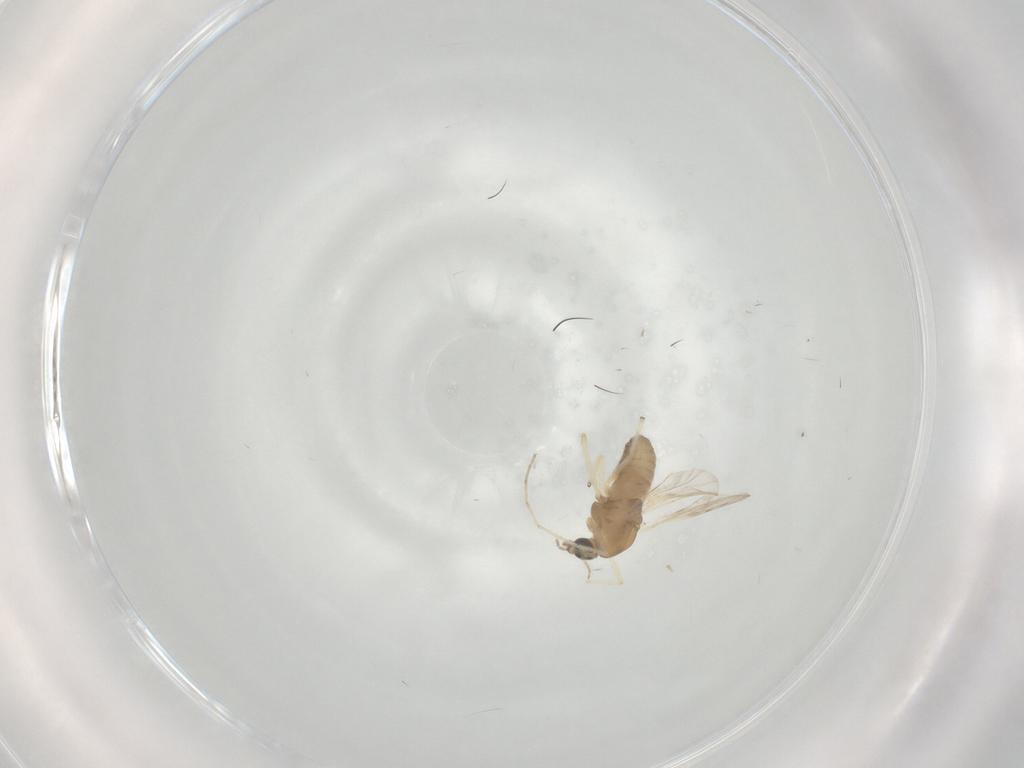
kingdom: Animalia
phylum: Arthropoda
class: Insecta
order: Diptera
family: Chironomidae
